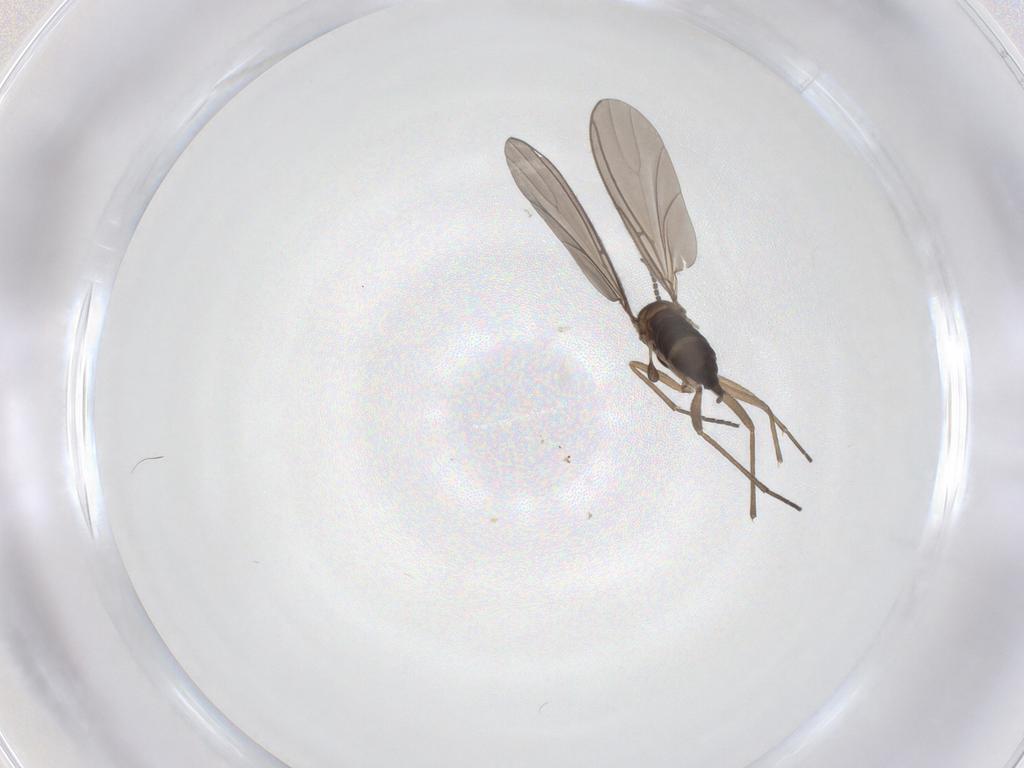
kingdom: Animalia
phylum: Arthropoda
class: Insecta
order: Diptera
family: Sciaridae
